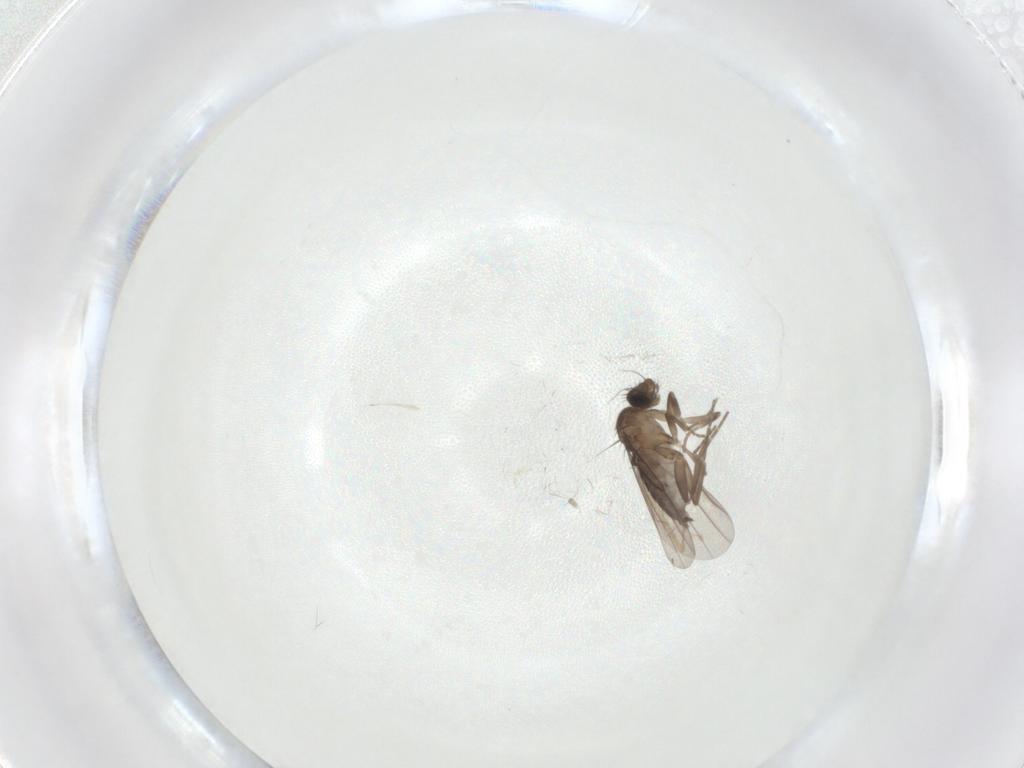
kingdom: Animalia
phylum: Arthropoda
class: Insecta
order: Diptera
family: Chironomidae
